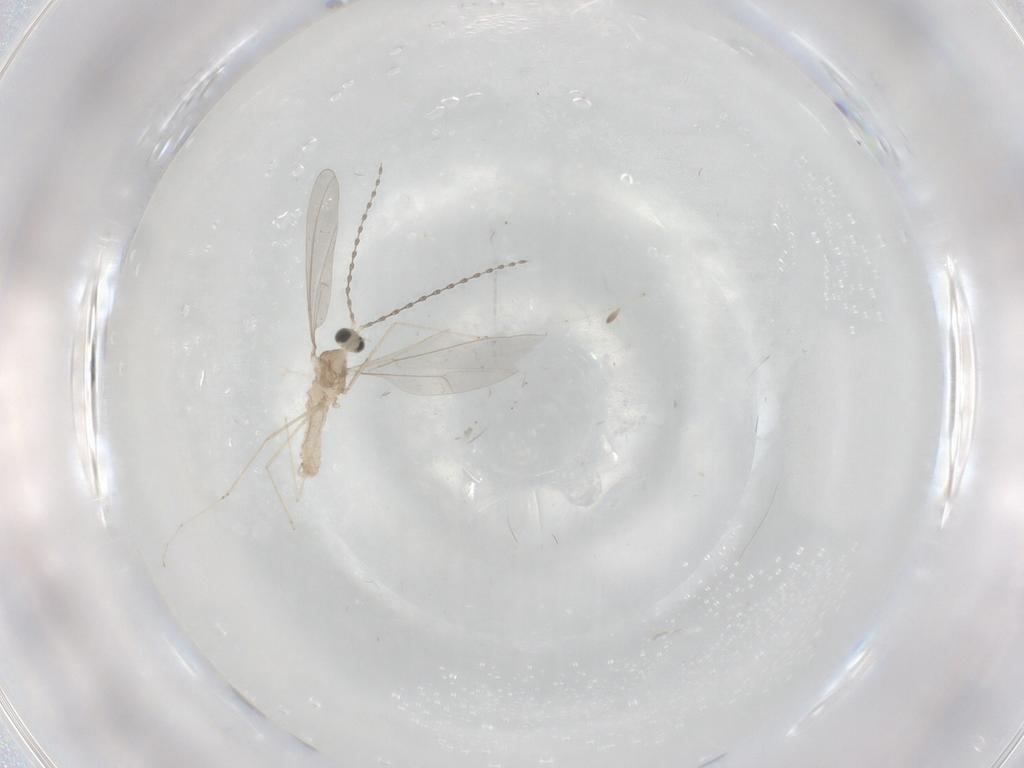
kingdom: Animalia
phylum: Arthropoda
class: Insecta
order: Diptera
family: Cecidomyiidae
